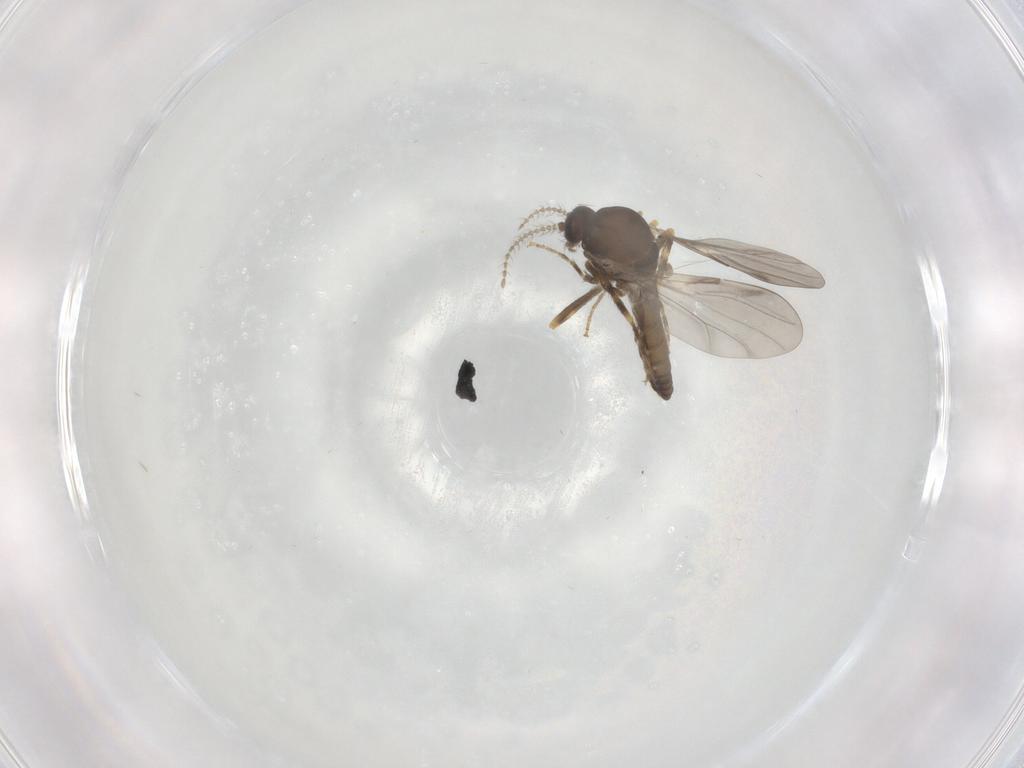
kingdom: Animalia
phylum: Arthropoda
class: Insecta
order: Diptera
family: Ceratopogonidae
